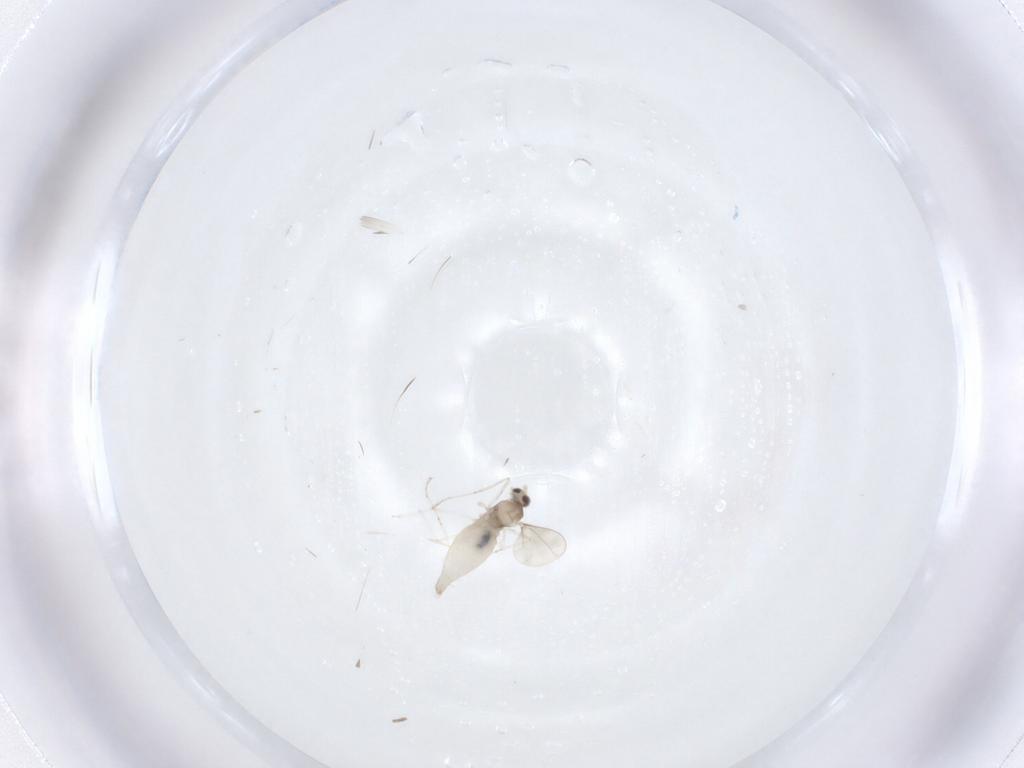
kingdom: Animalia
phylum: Arthropoda
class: Insecta
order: Diptera
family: Cecidomyiidae
